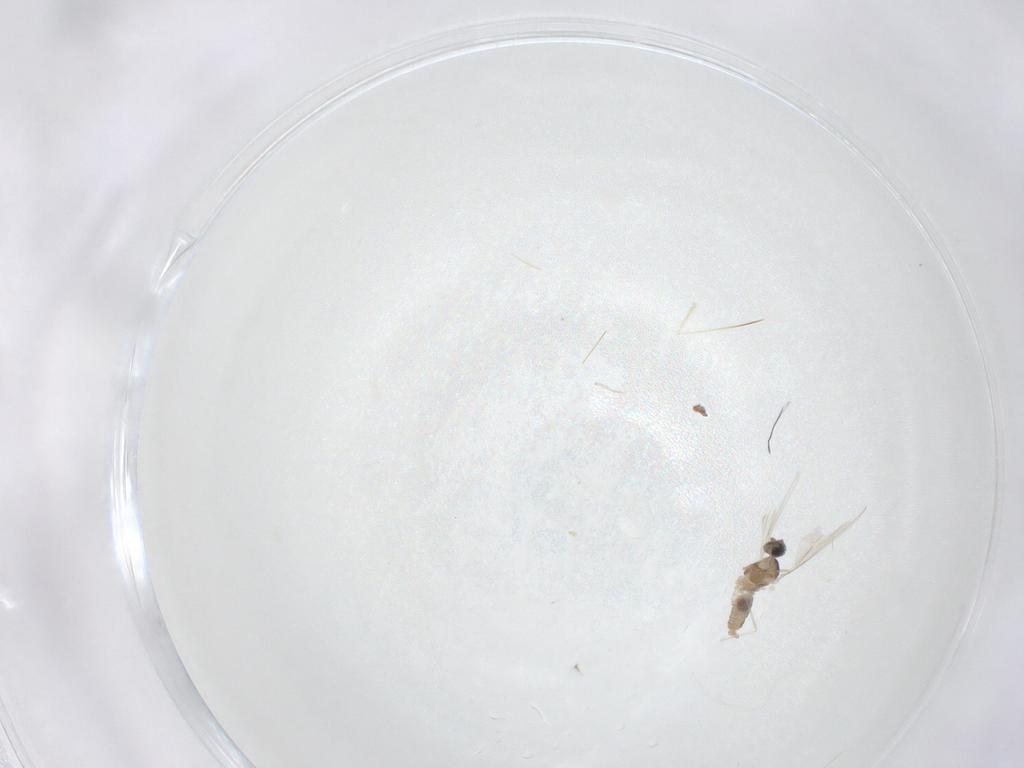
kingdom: Animalia
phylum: Arthropoda
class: Insecta
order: Diptera
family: Cecidomyiidae
